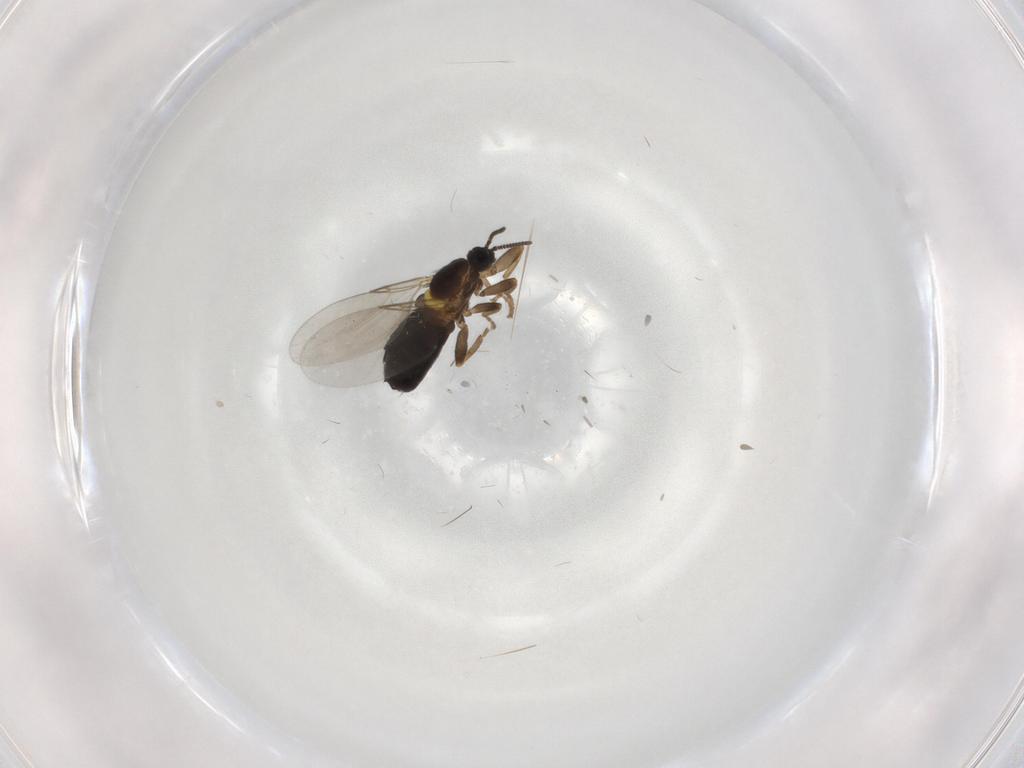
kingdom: Animalia
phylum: Arthropoda
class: Insecta
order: Diptera
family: Scatopsidae
